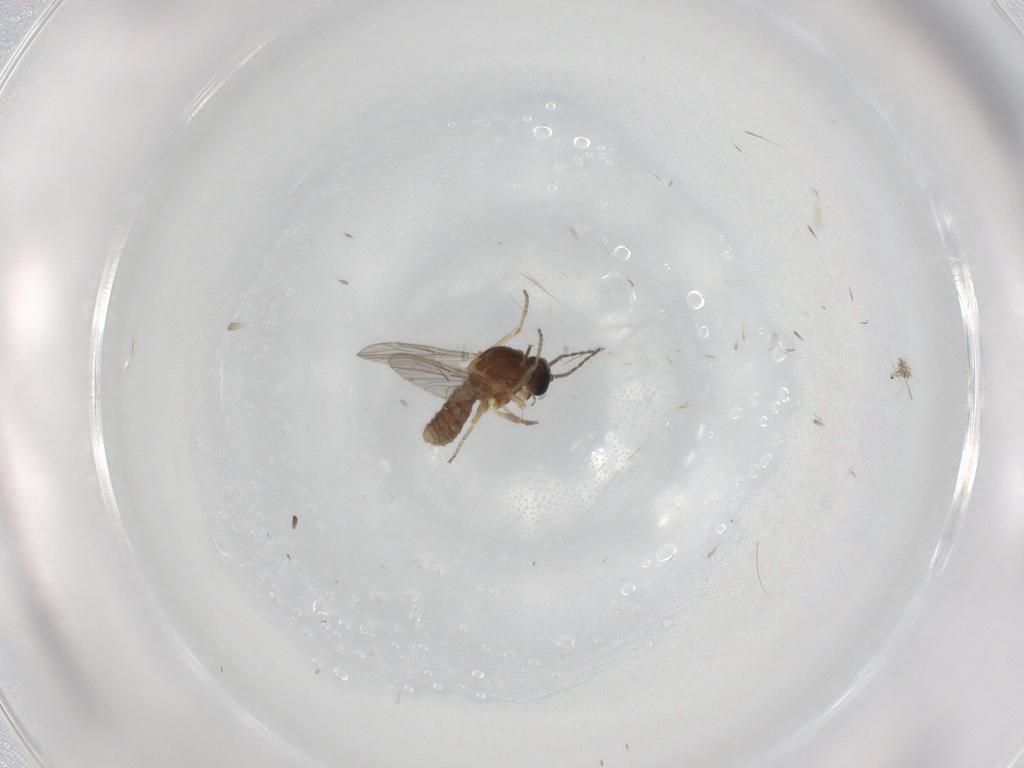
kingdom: Animalia
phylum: Arthropoda
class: Insecta
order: Diptera
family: Ceratopogonidae
